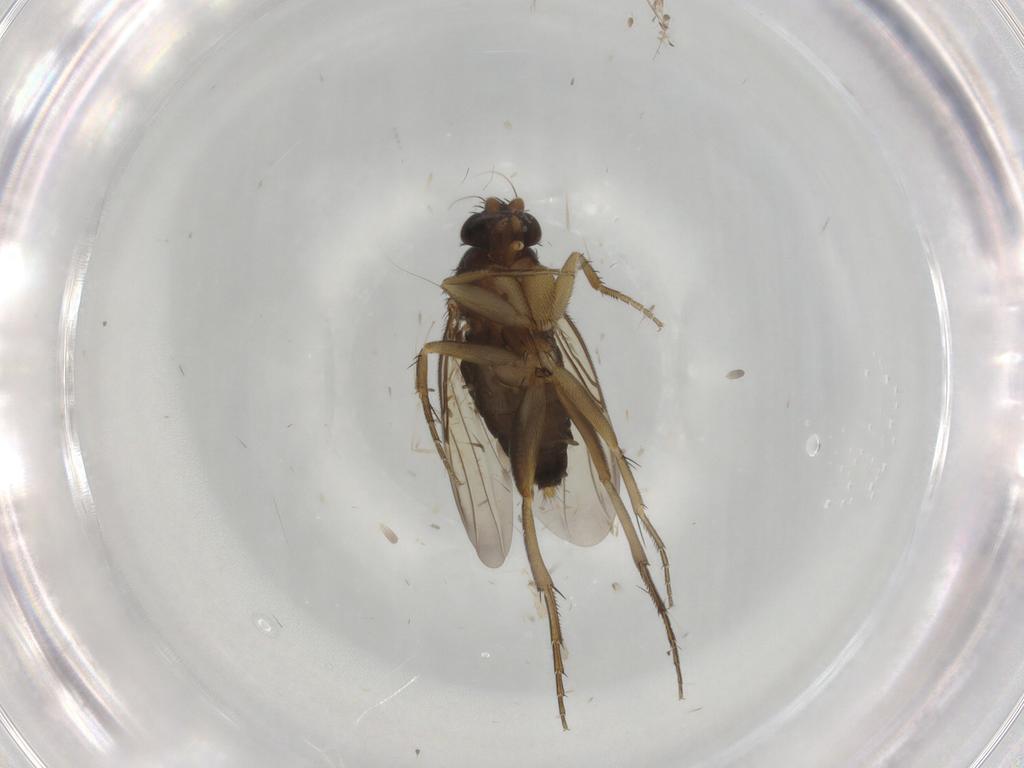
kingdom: Animalia
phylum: Arthropoda
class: Insecta
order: Diptera
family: Phoridae
